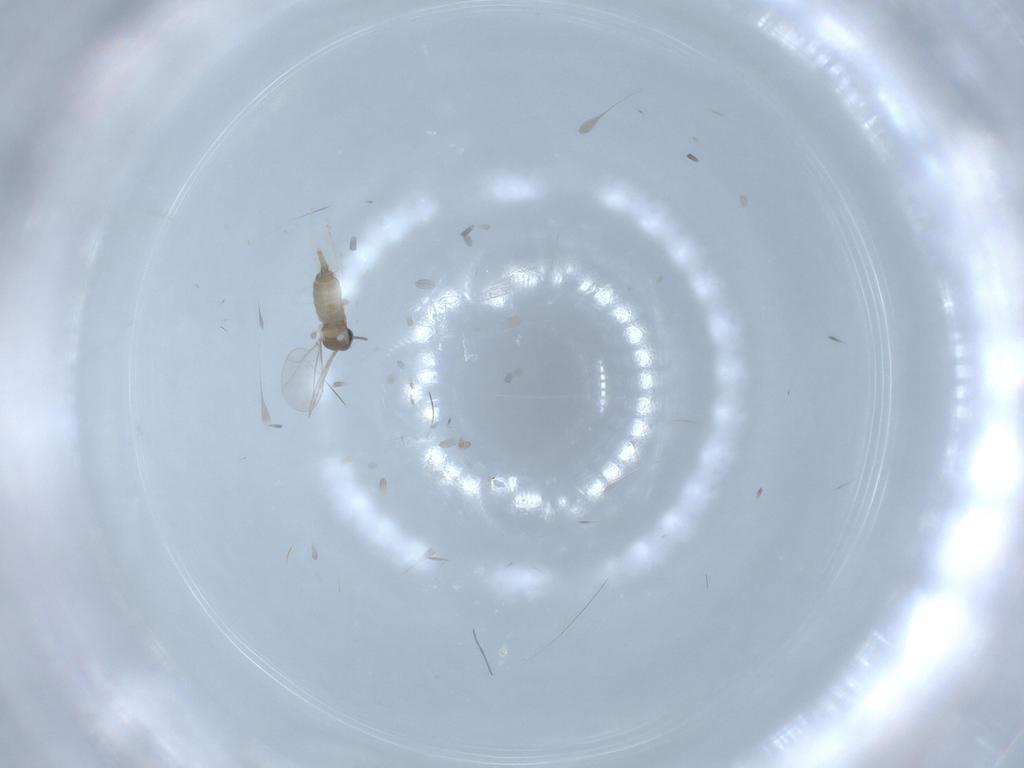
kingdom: Animalia
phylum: Arthropoda
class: Insecta
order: Diptera
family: Cecidomyiidae
